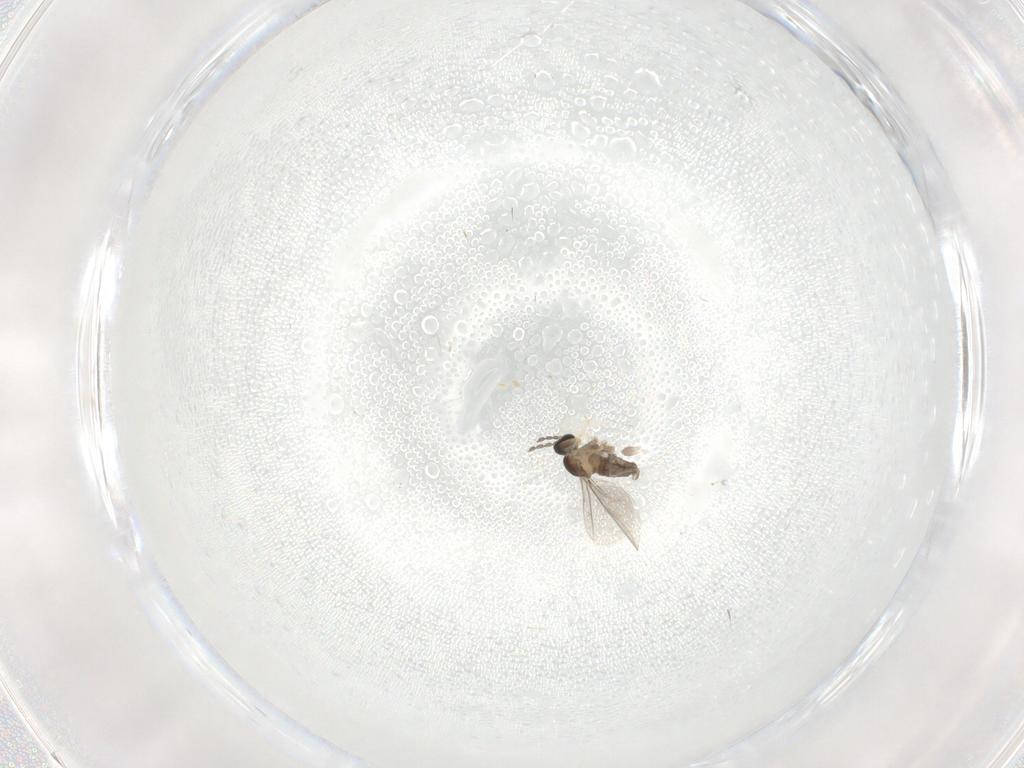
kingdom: Animalia
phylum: Arthropoda
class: Insecta
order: Diptera
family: Cecidomyiidae
